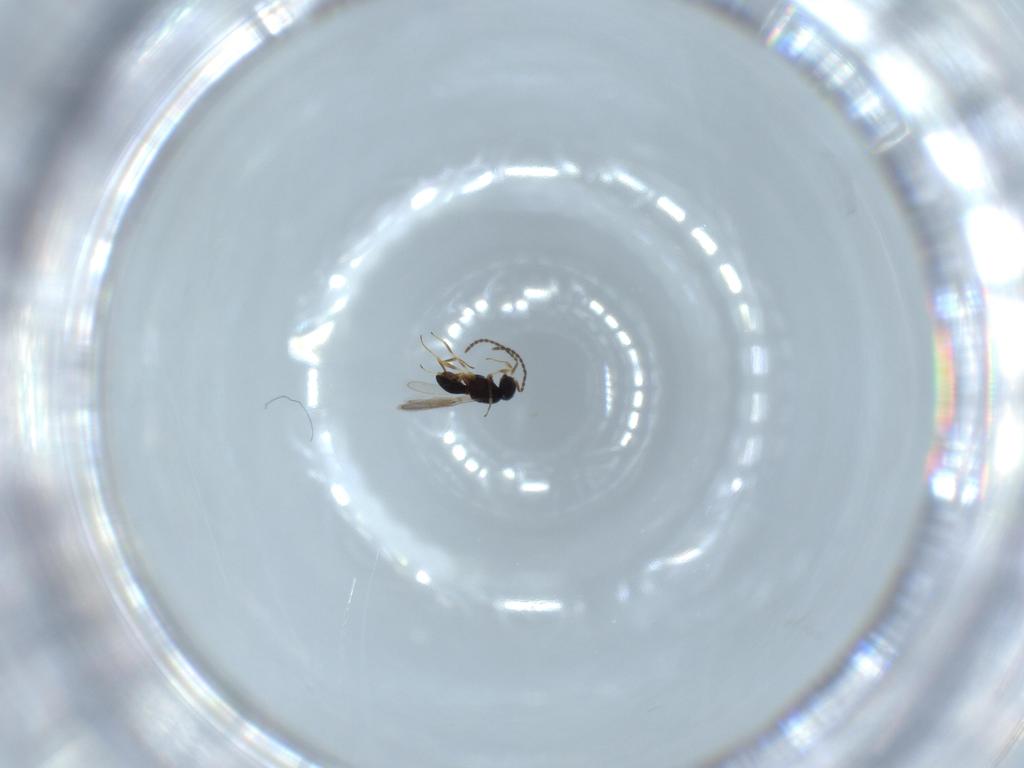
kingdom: Animalia
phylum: Arthropoda
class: Insecta
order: Hymenoptera
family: Scelionidae
